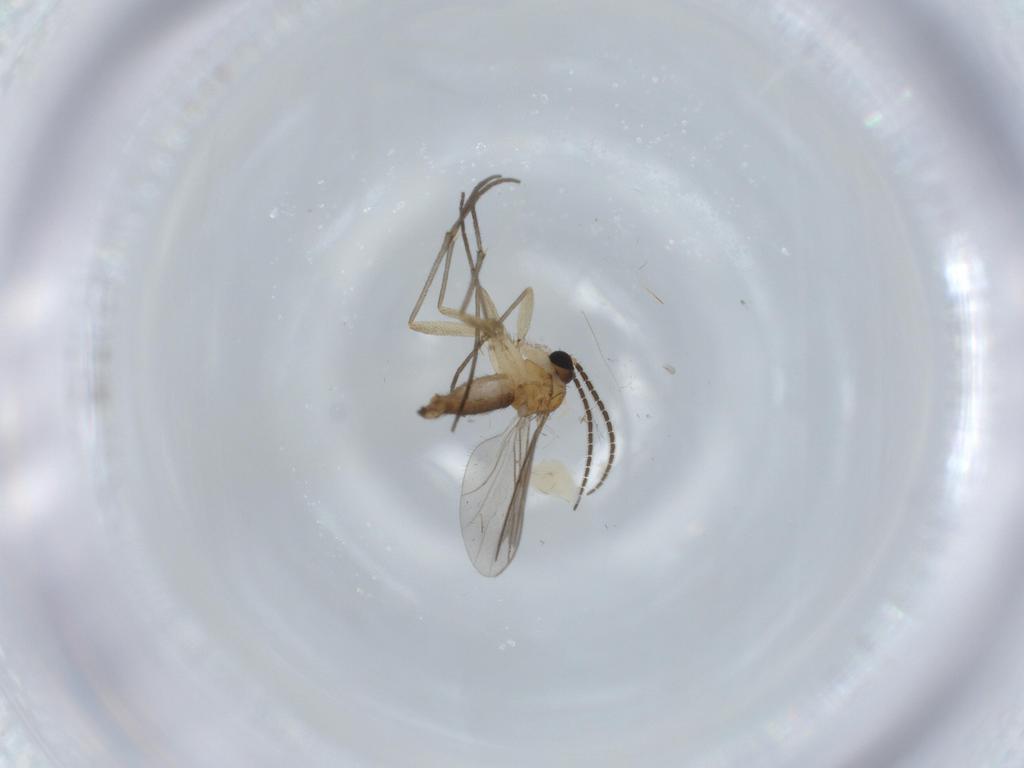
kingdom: Animalia
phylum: Arthropoda
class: Insecta
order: Diptera
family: Sciaridae
